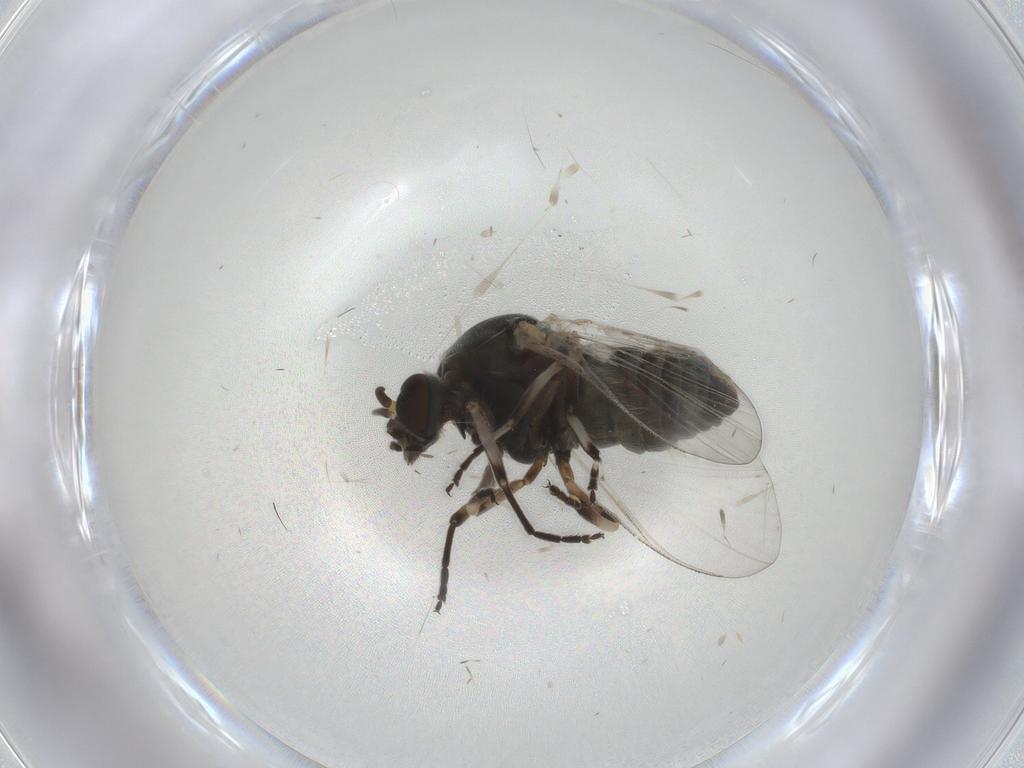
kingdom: Animalia
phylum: Arthropoda
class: Insecta
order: Diptera
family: Simuliidae
